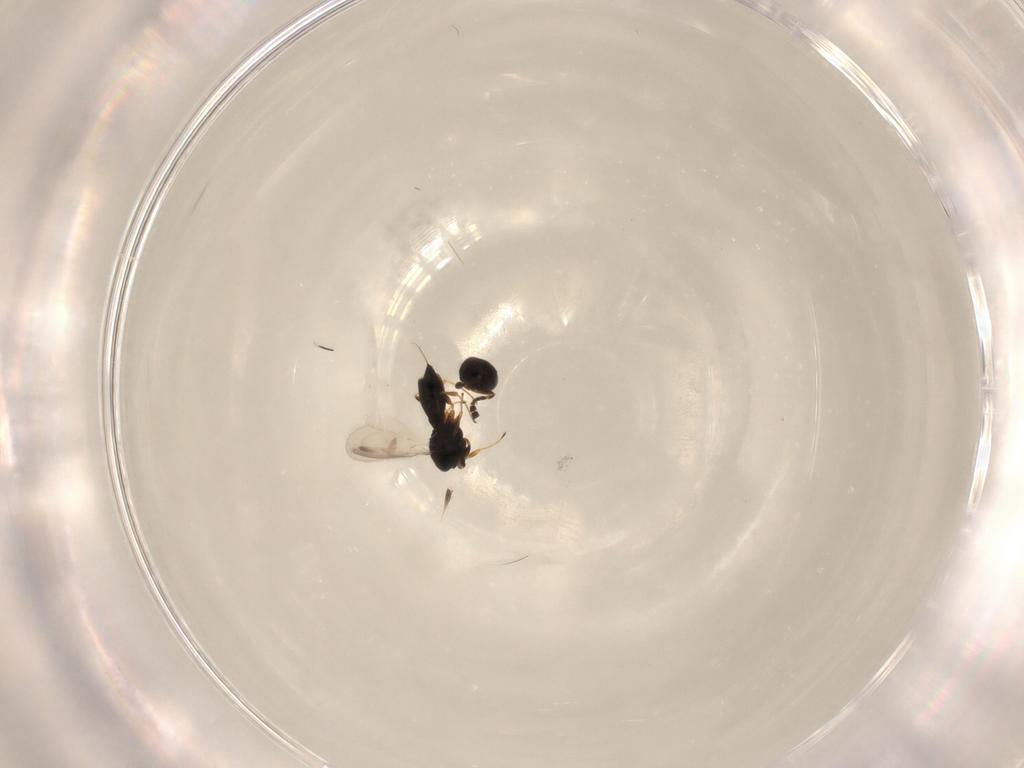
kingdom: Animalia
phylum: Arthropoda
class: Insecta
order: Hymenoptera
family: Scelionidae
